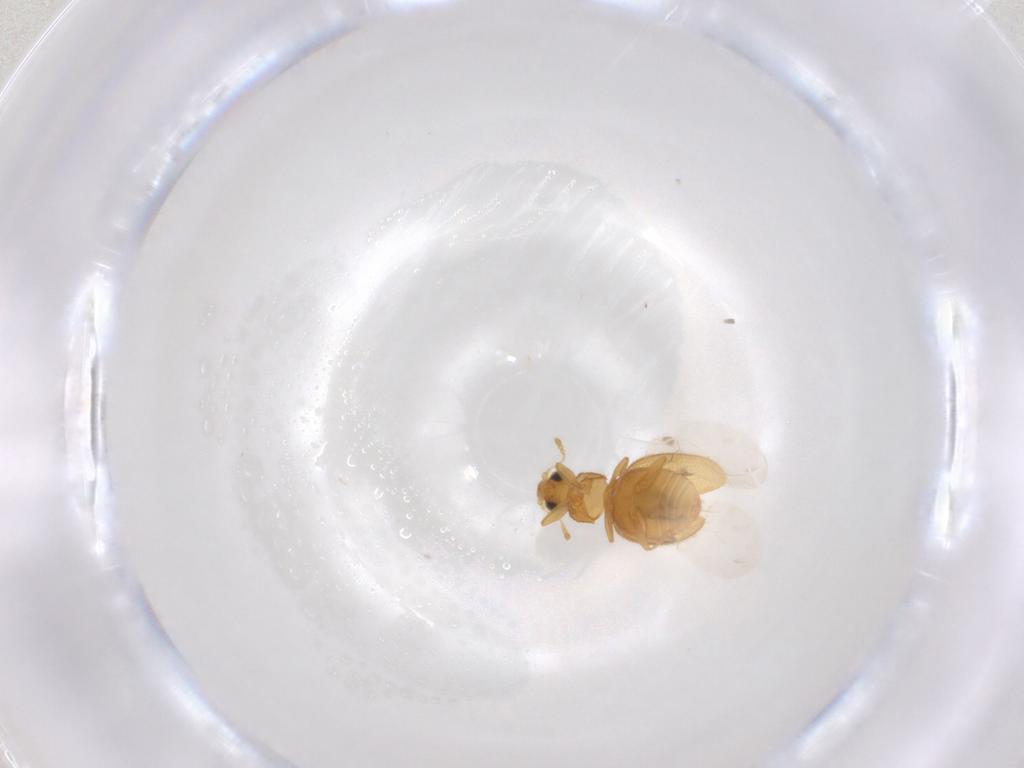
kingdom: Animalia
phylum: Arthropoda
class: Insecta
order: Coleoptera
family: Latridiidae
